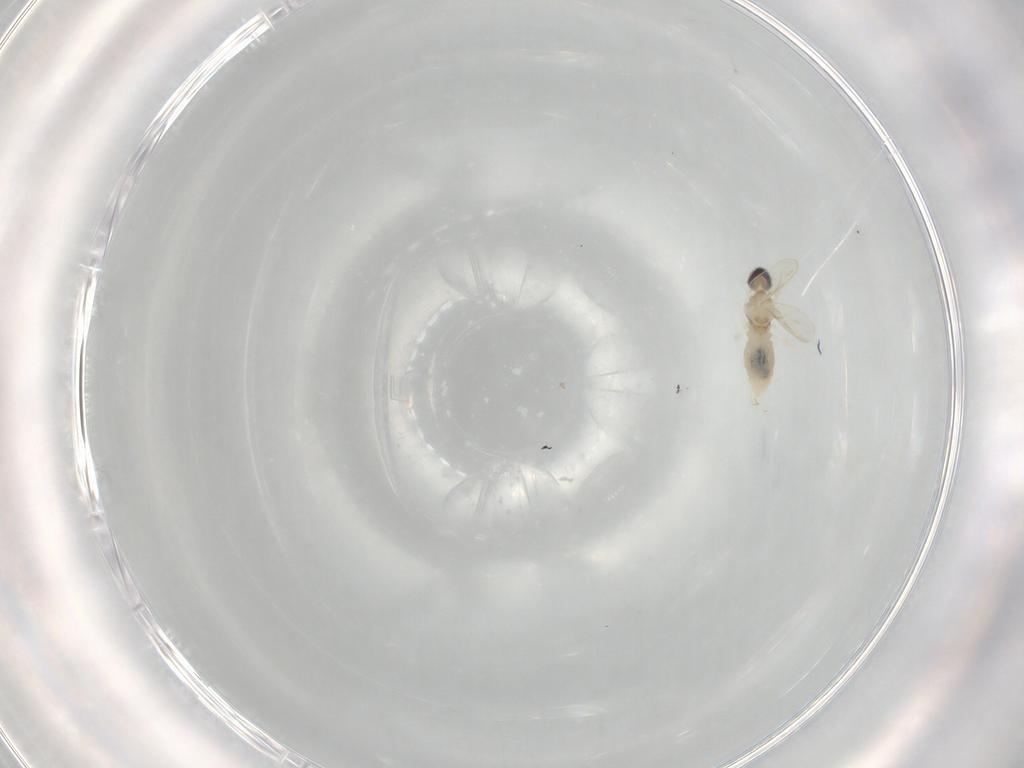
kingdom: Animalia
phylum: Arthropoda
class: Insecta
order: Diptera
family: Cecidomyiidae
